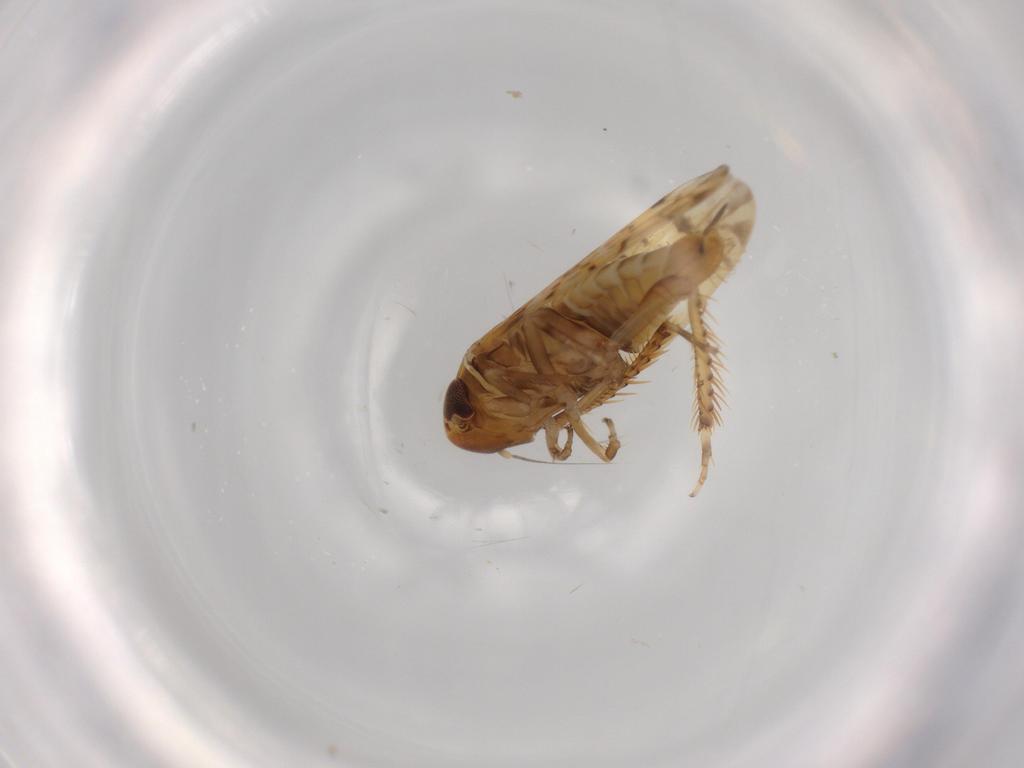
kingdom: Animalia
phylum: Arthropoda
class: Insecta
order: Hemiptera
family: Cicadellidae
